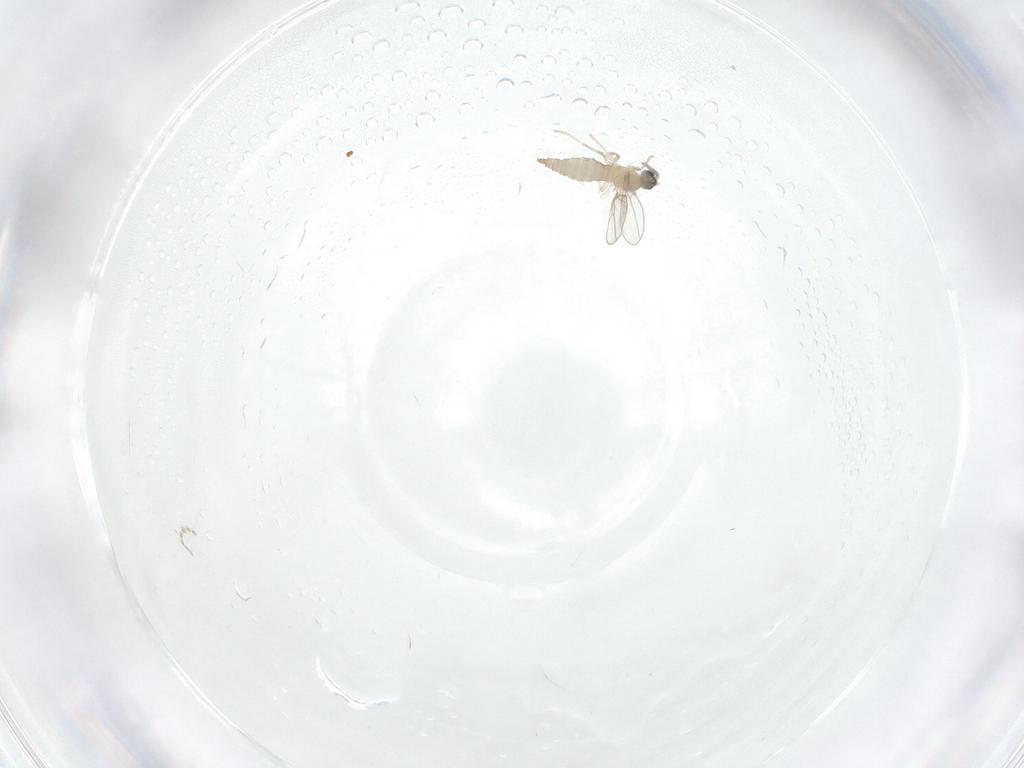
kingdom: Animalia
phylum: Arthropoda
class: Insecta
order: Diptera
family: Cecidomyiidae
